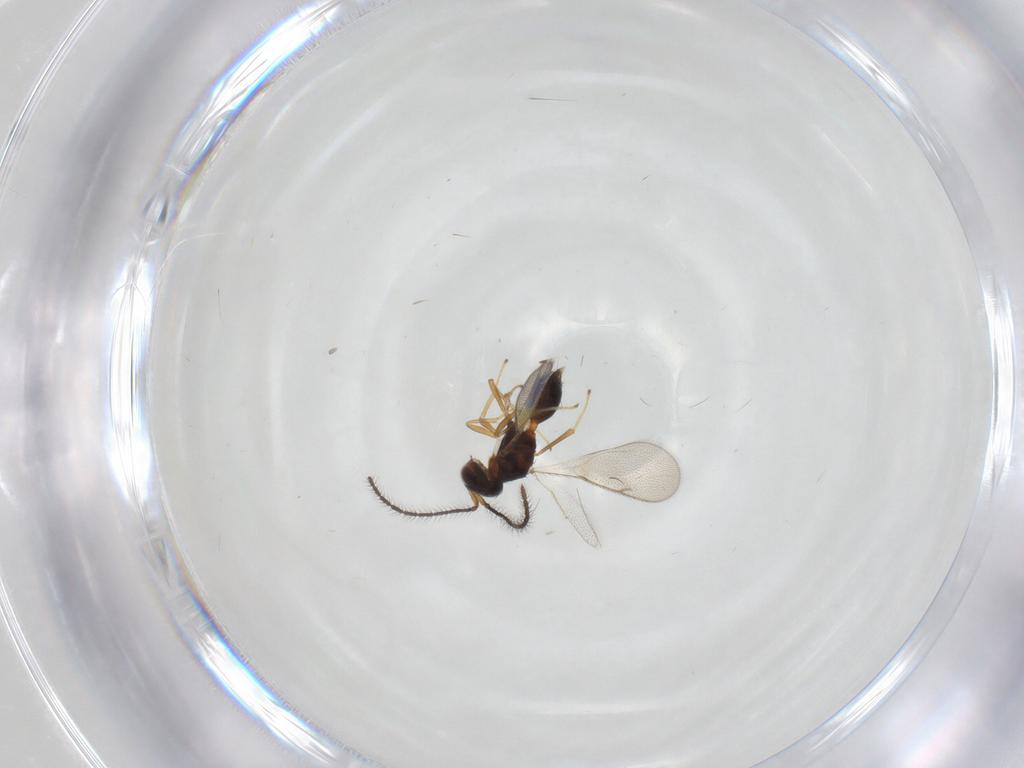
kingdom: Animalia
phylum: Arthropoda
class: Insecta
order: Hymenoptera
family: Diparidae
